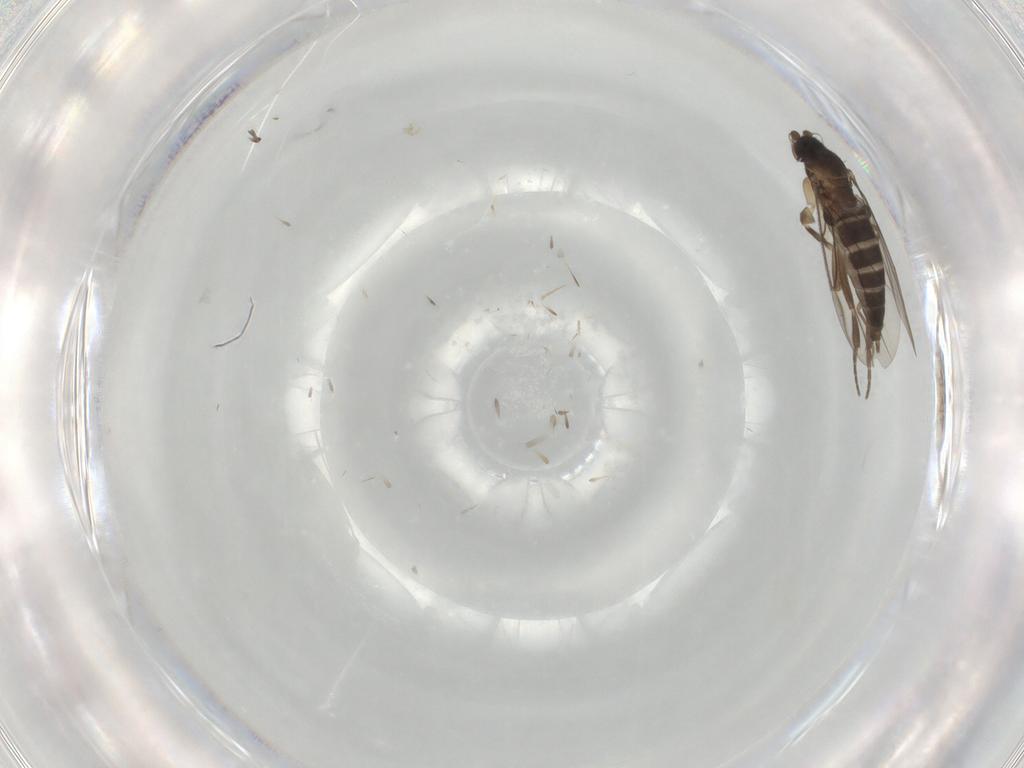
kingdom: Animalia
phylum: Arthropoda
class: Insecta
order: Diptera
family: Phoridae
